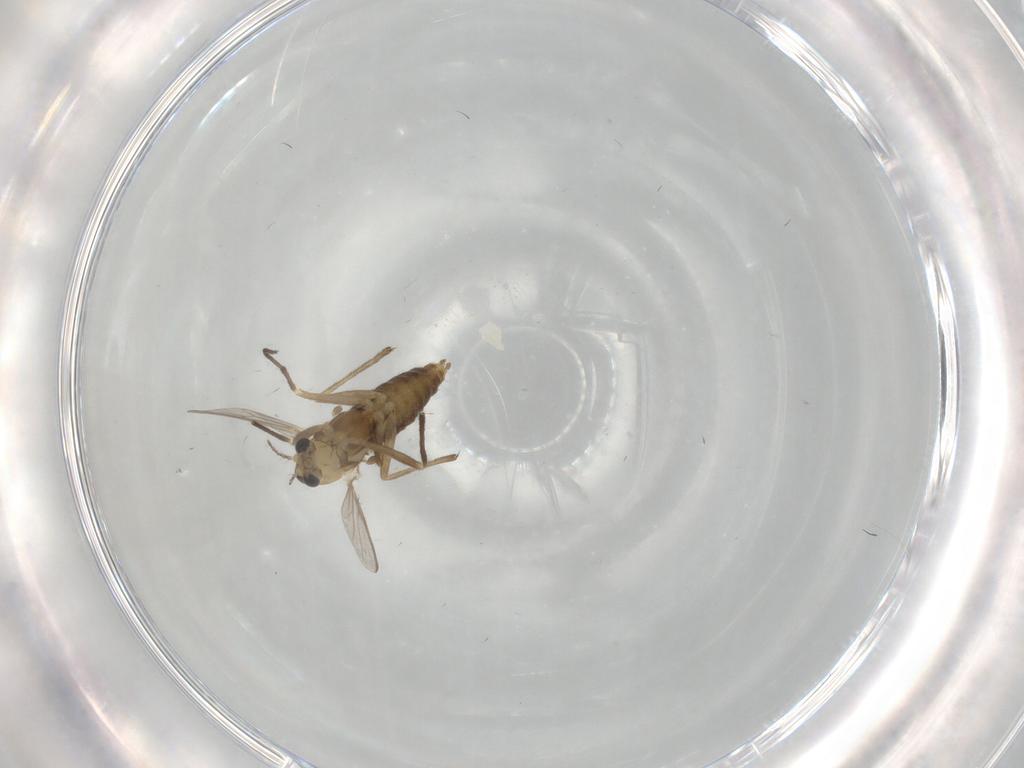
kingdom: Animalia
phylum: Arthropoda
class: Insecta
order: Diptera
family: Chironomidae
